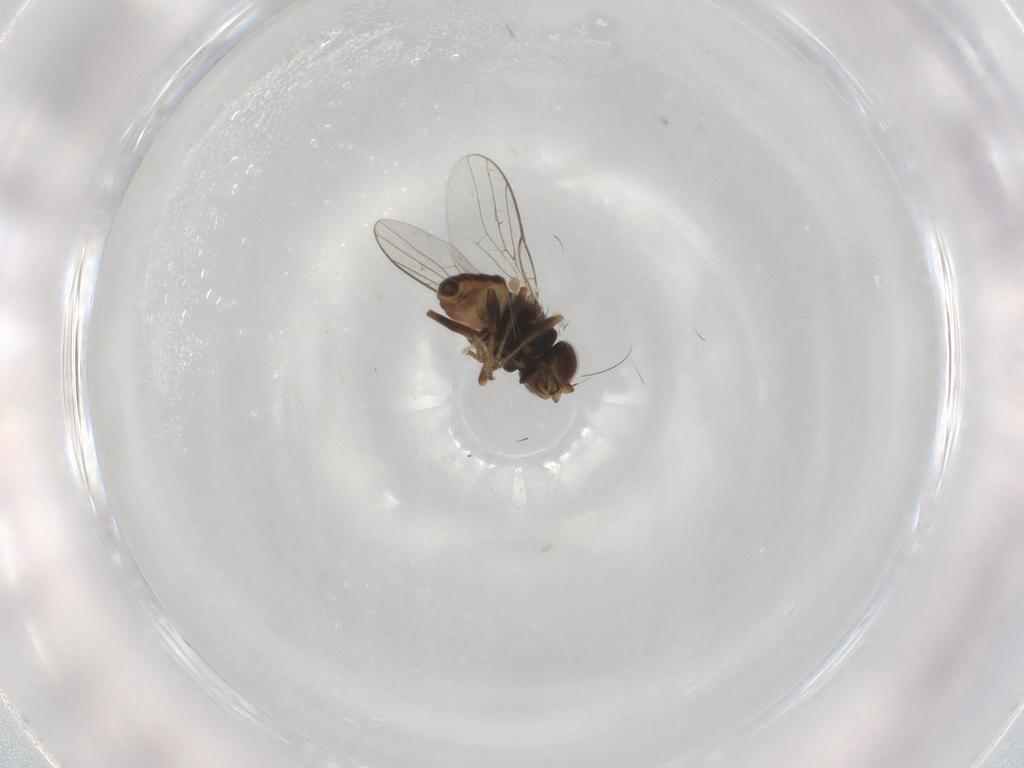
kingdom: Animalia
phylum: Arthropoda
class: Insecta
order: Diptera
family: Chloropidae
